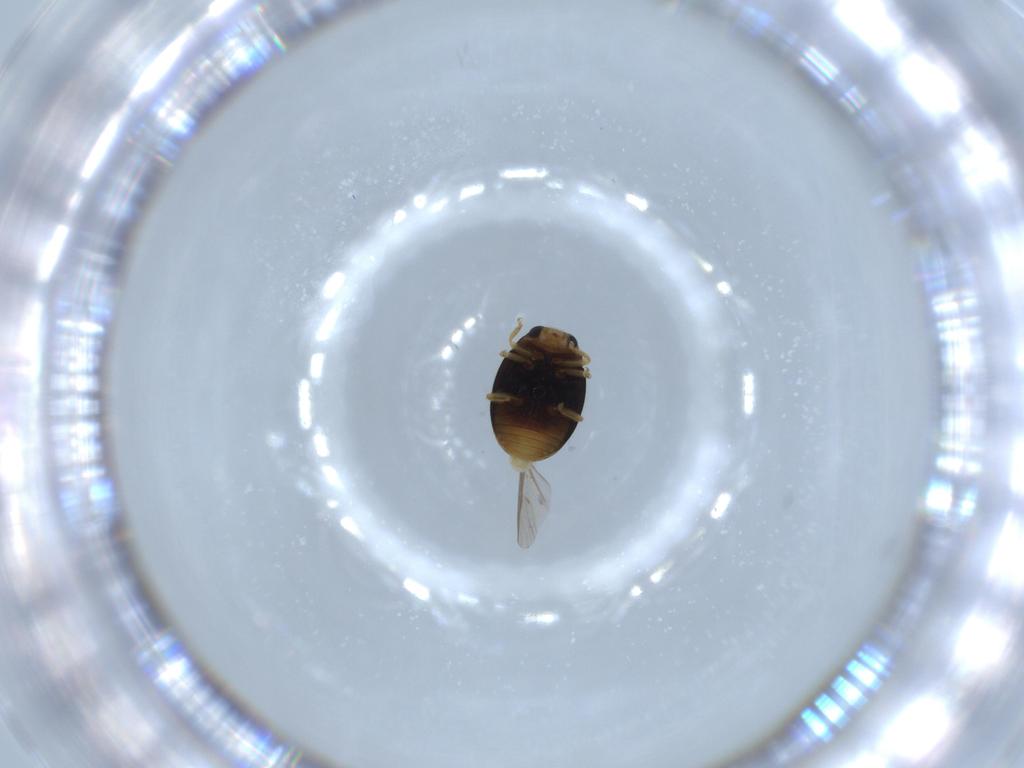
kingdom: Animalia
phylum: Arthropoda
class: Insecta
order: Coleoptera
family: Coccinellidae
